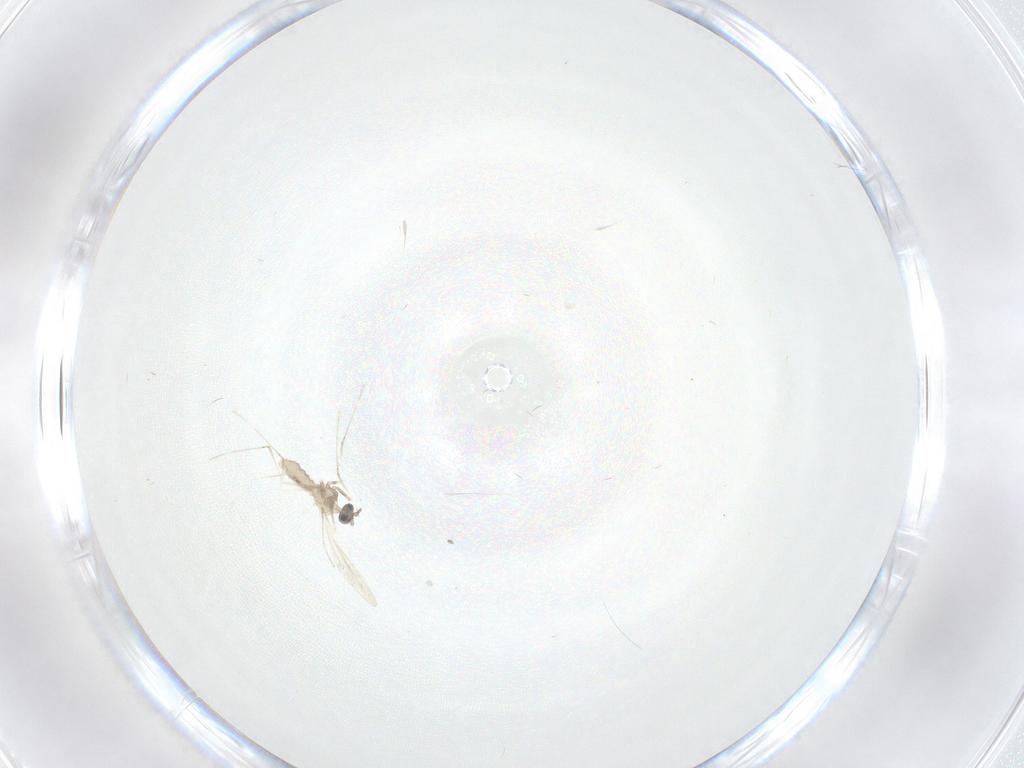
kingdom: Animalia
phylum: Arthropoda
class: Insecta
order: Diptera
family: Cecidomyiidae
